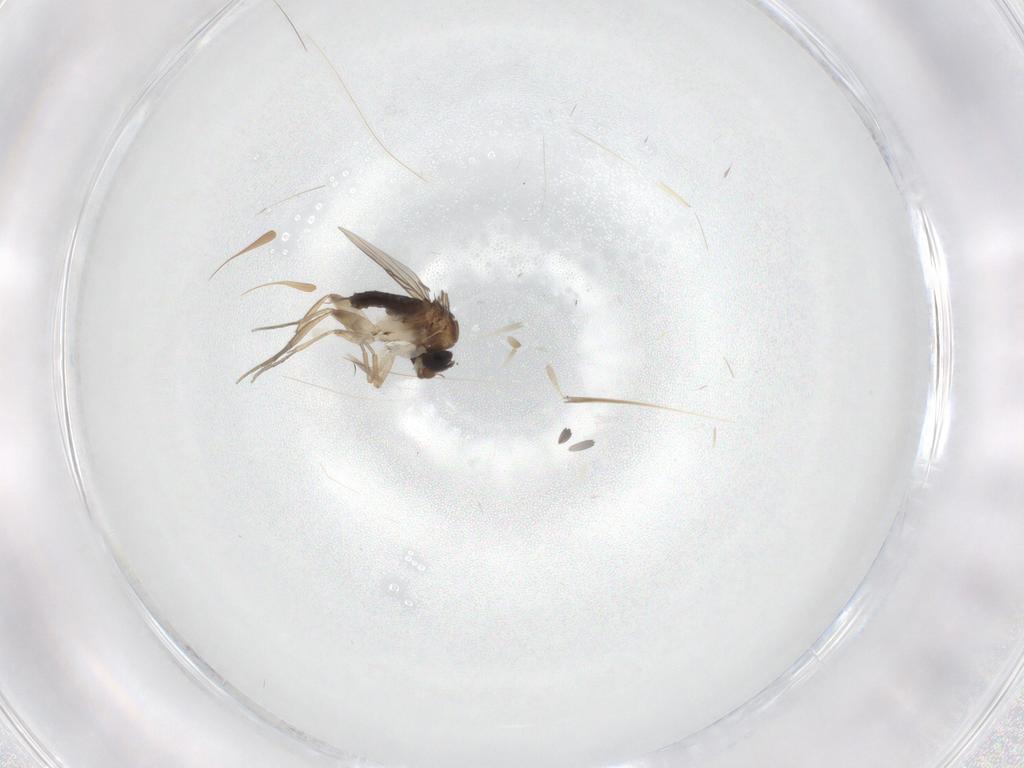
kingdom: Animalia
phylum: Arthropoda
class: Insecta
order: Diptera
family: Phoridae
